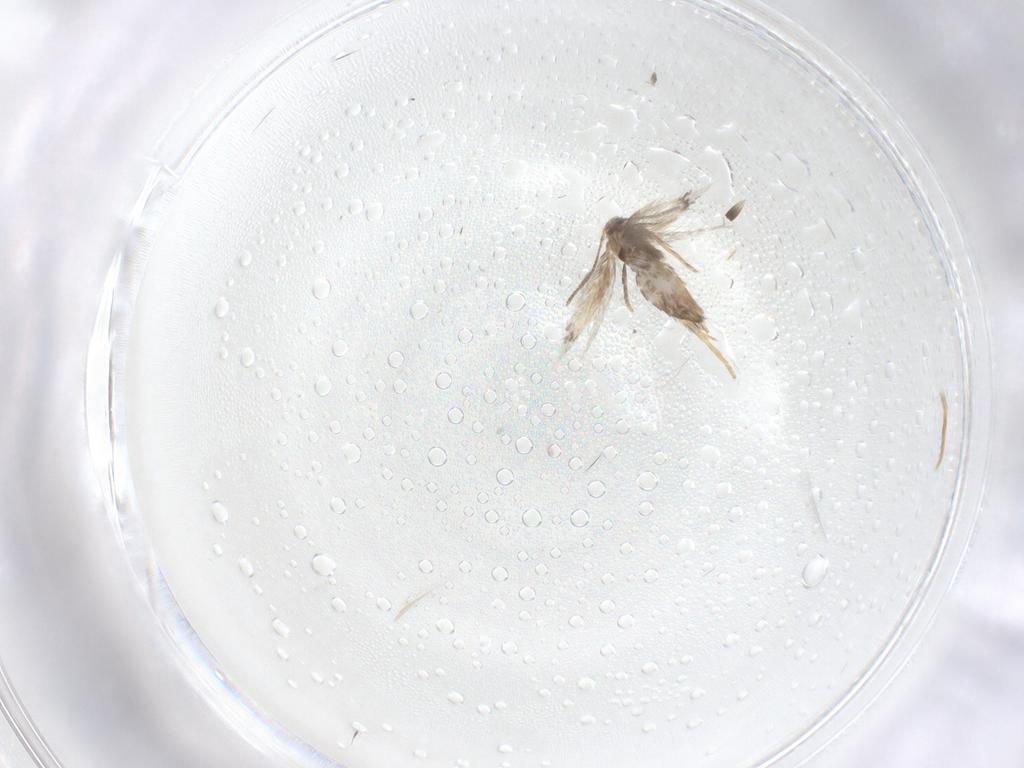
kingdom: Animalia
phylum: Arthropoda
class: Insecta
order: Lepidoptera
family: Nepticulidae
